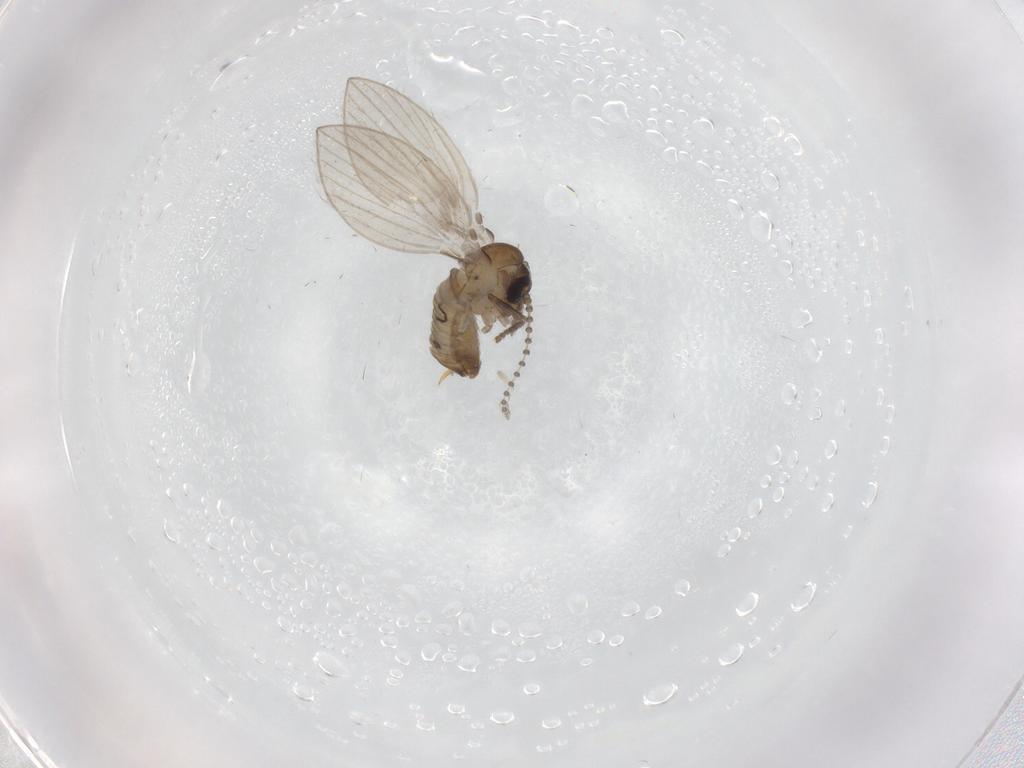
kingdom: Animalia
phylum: Arthropoda
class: Insecta
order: Diptera
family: Psychodidae
